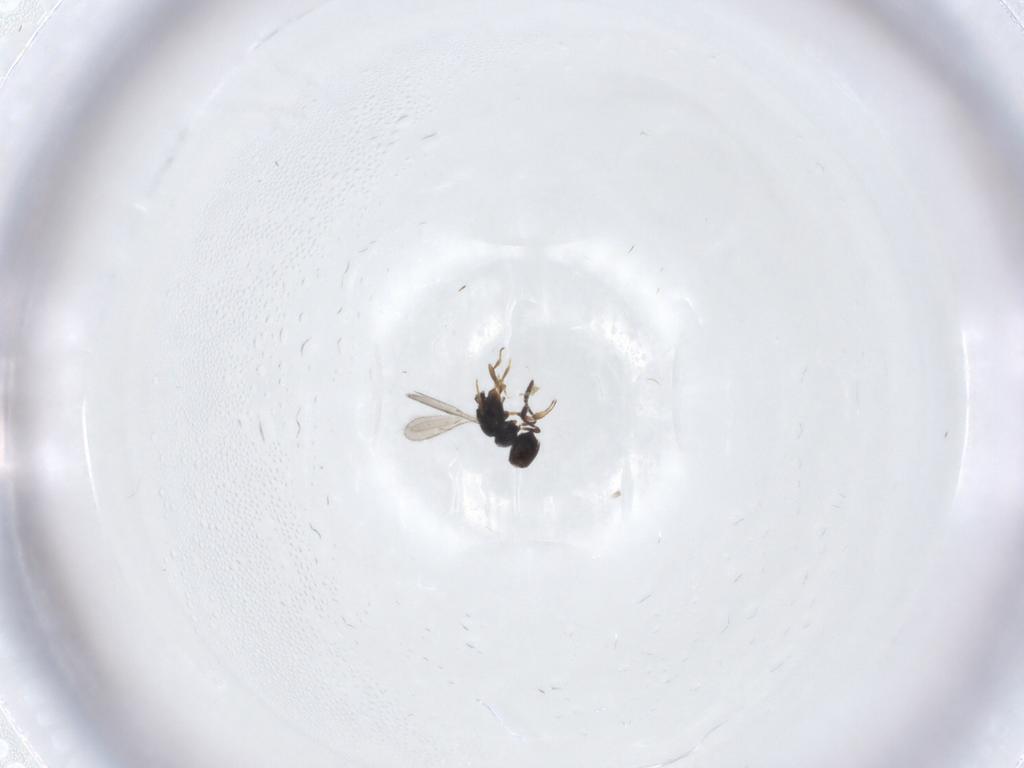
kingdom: Animalia
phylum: Arthropoda
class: Insecta
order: Hymenoptera
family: Scelionidae
